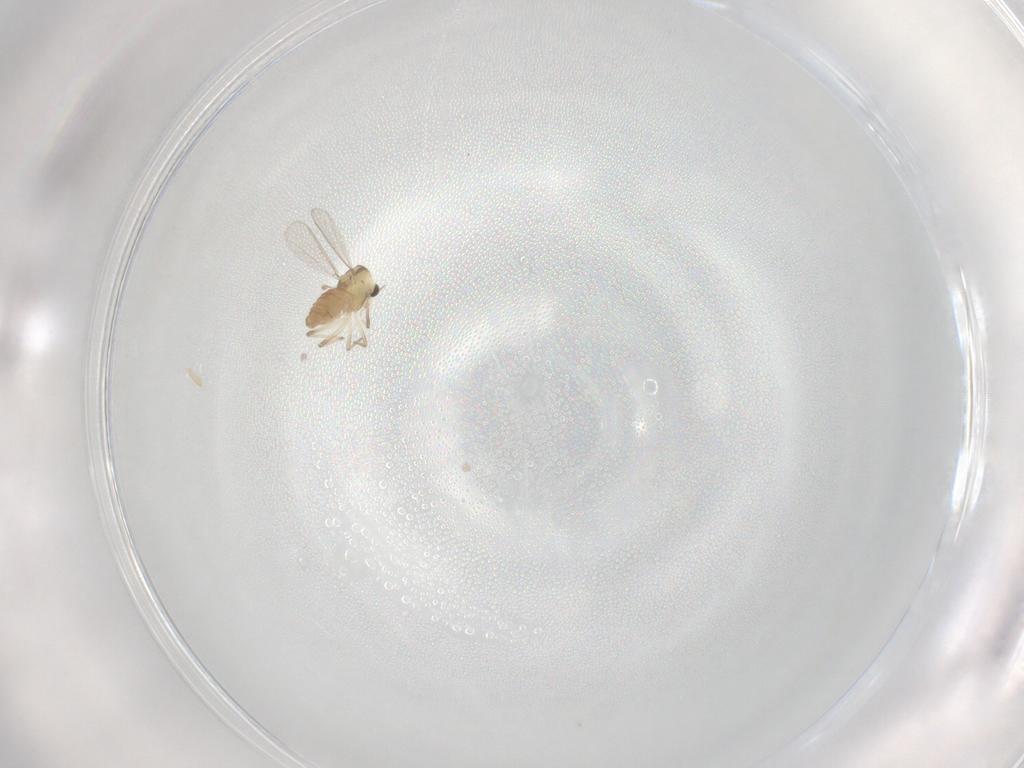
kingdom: Animalia
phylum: Arthropoda
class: Insecta
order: Diptera
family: Chironomidae
